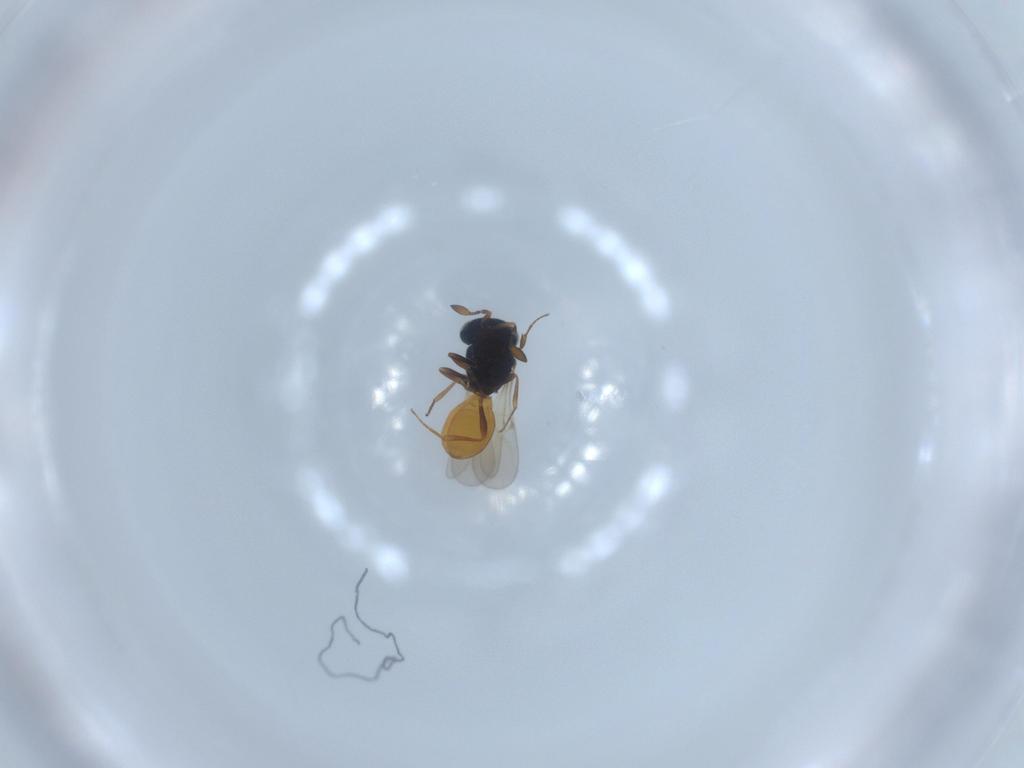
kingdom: Animalia
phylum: Arthropoda
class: Insecta
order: Hymenoptera
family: Scelionidae
